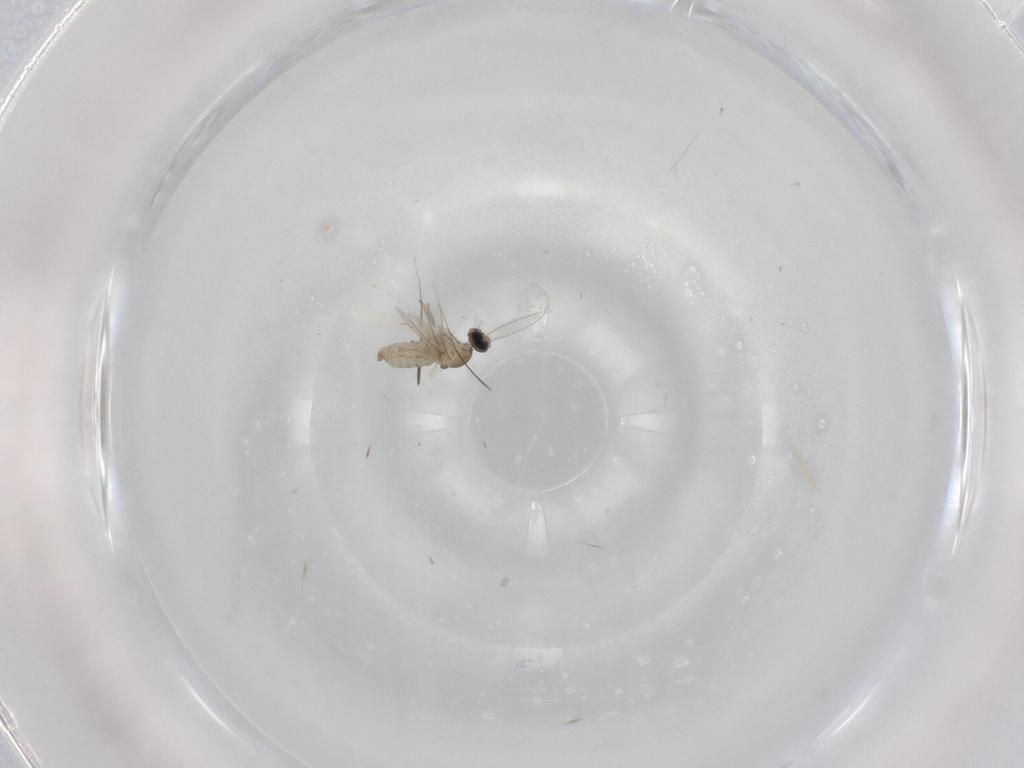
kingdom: Animalia
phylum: Arthropoda
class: Insecta
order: Diptera
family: Cecidomyiidae
